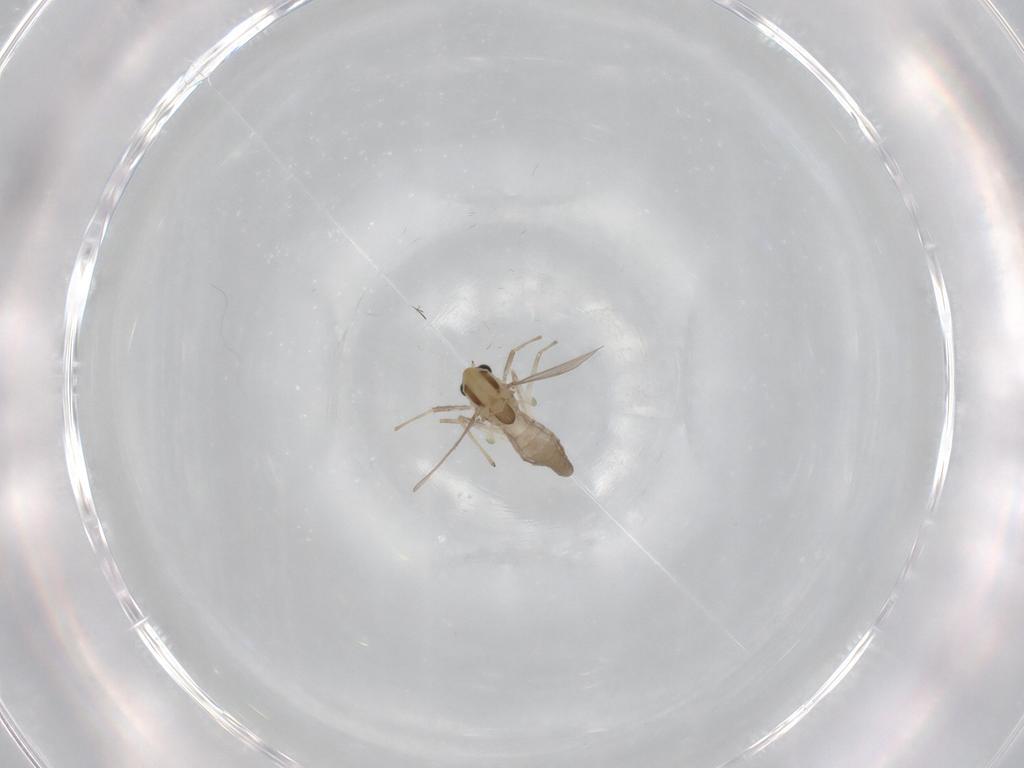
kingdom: Animalia
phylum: Arthropoda
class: Insecta
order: Diptera
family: Chironomidae
